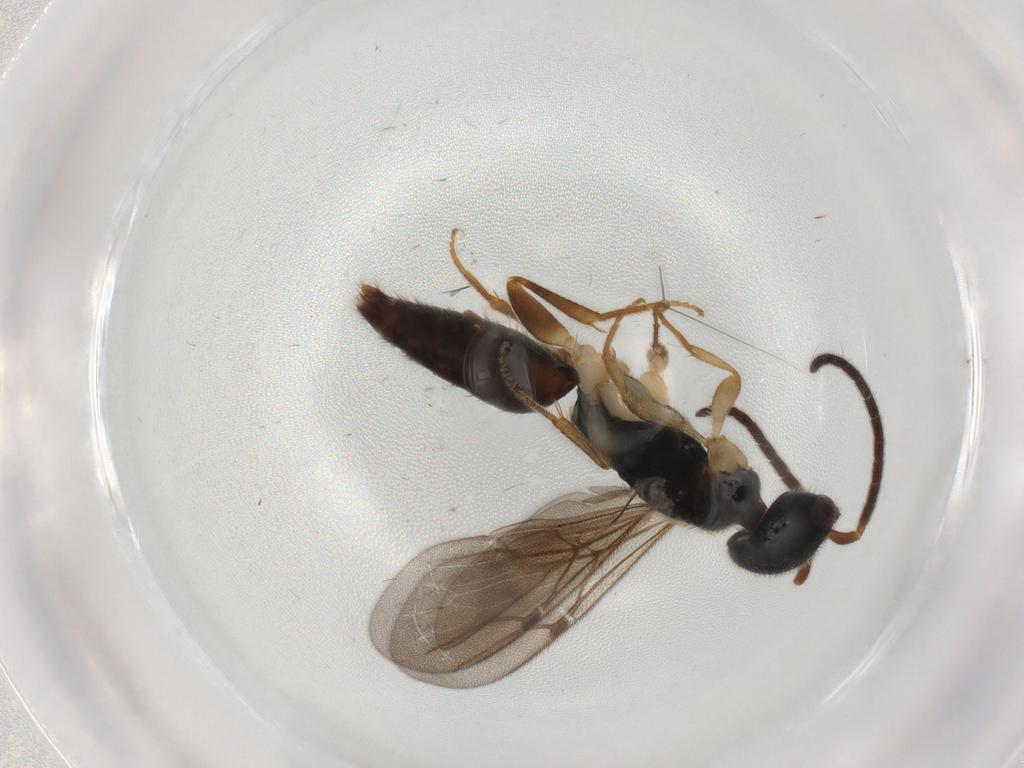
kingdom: Animalia
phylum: Arthropoda
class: Insecta
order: Hymenoptera
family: Bethylidae
